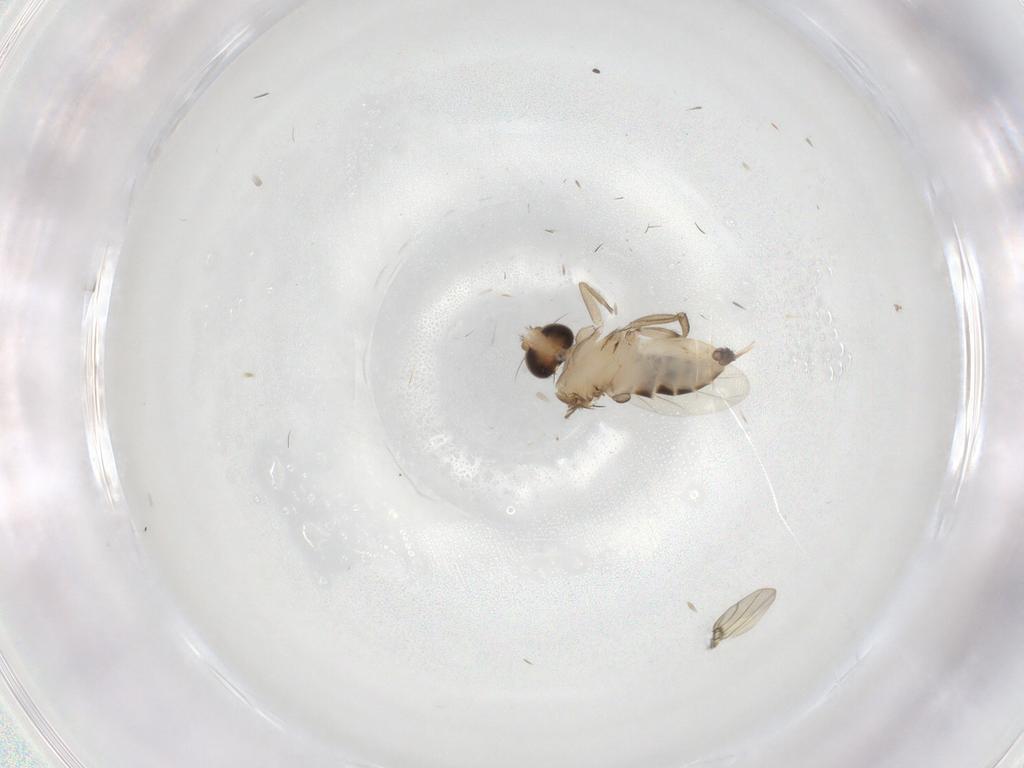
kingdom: Animalia
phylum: Arthropoda
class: Insecta
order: Diptera
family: Cecidomyiidae
